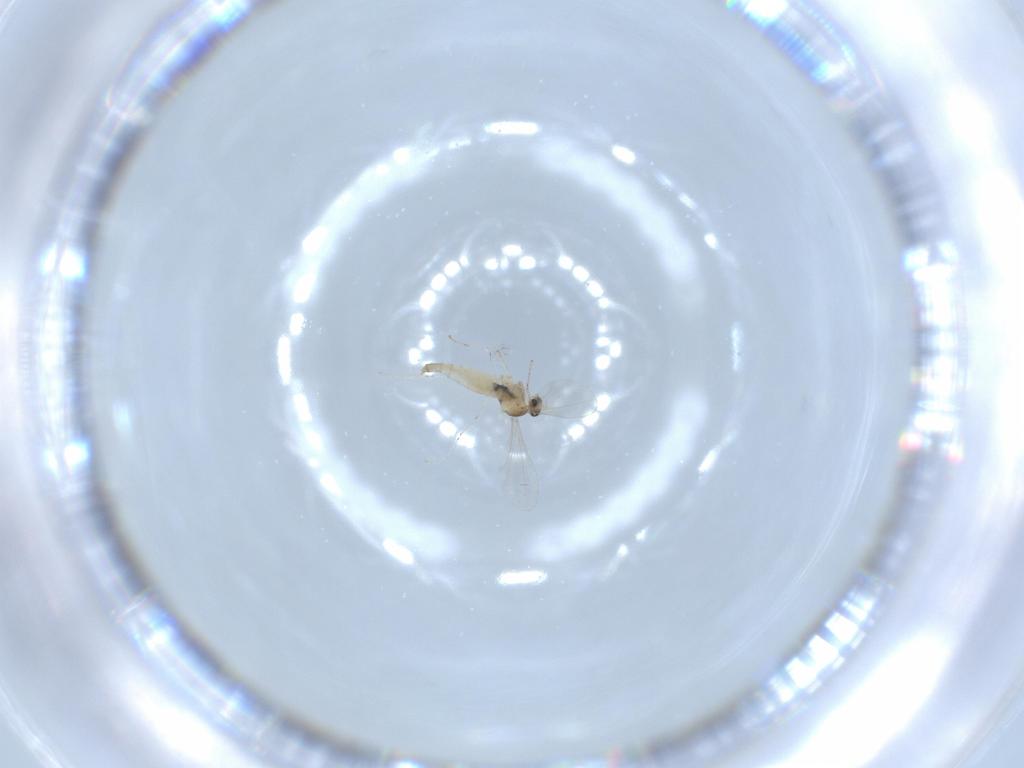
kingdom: Animalia
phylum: Arthropoda
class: Insecta
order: Diptera
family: Cecidomyiidae
